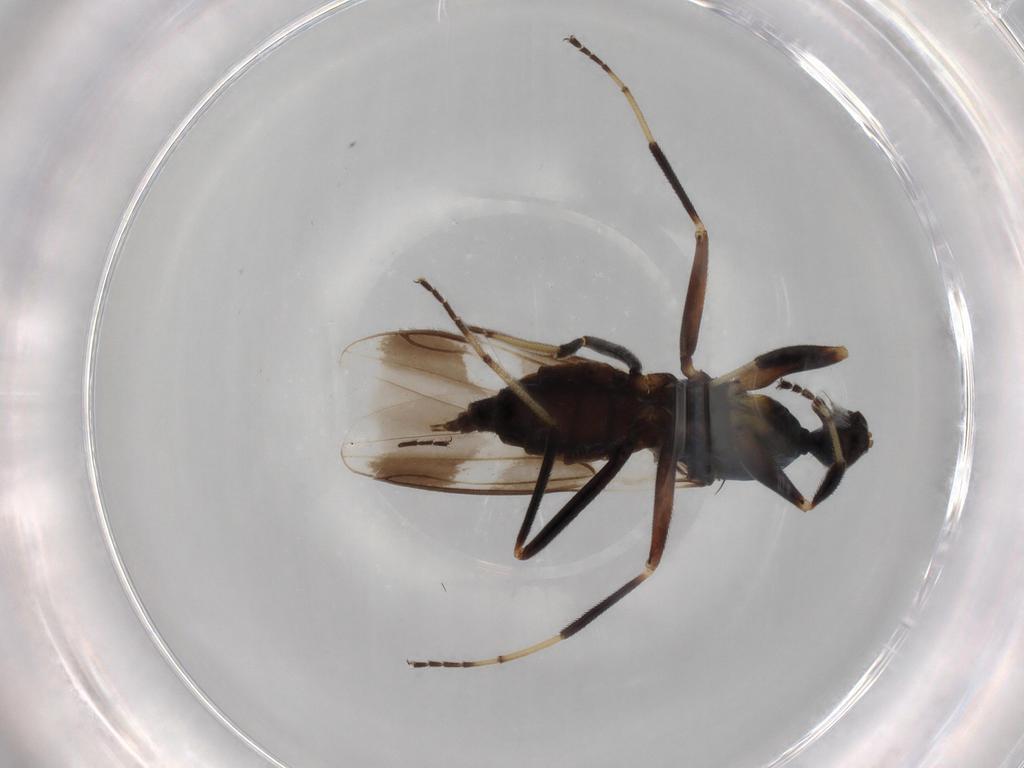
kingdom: Animalia
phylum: Arthropoda
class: Insecta
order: Diptera
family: Hybotidae
